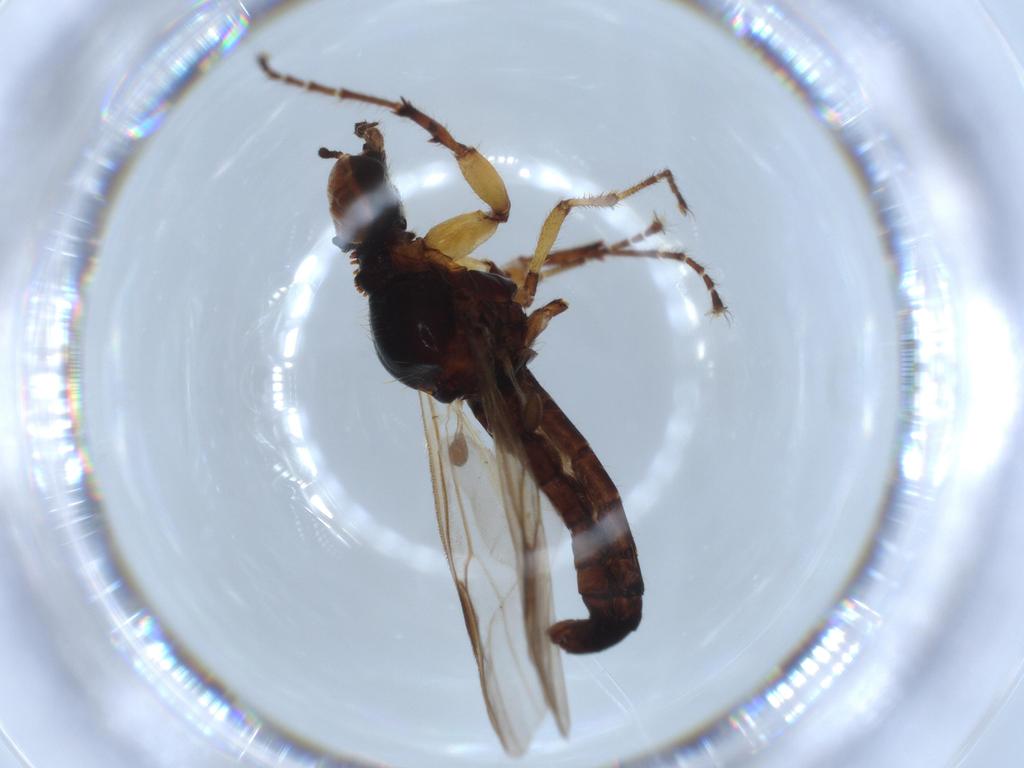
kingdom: Animalia
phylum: Arthropoda
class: Insecta
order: Diptera
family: Bibionidae
